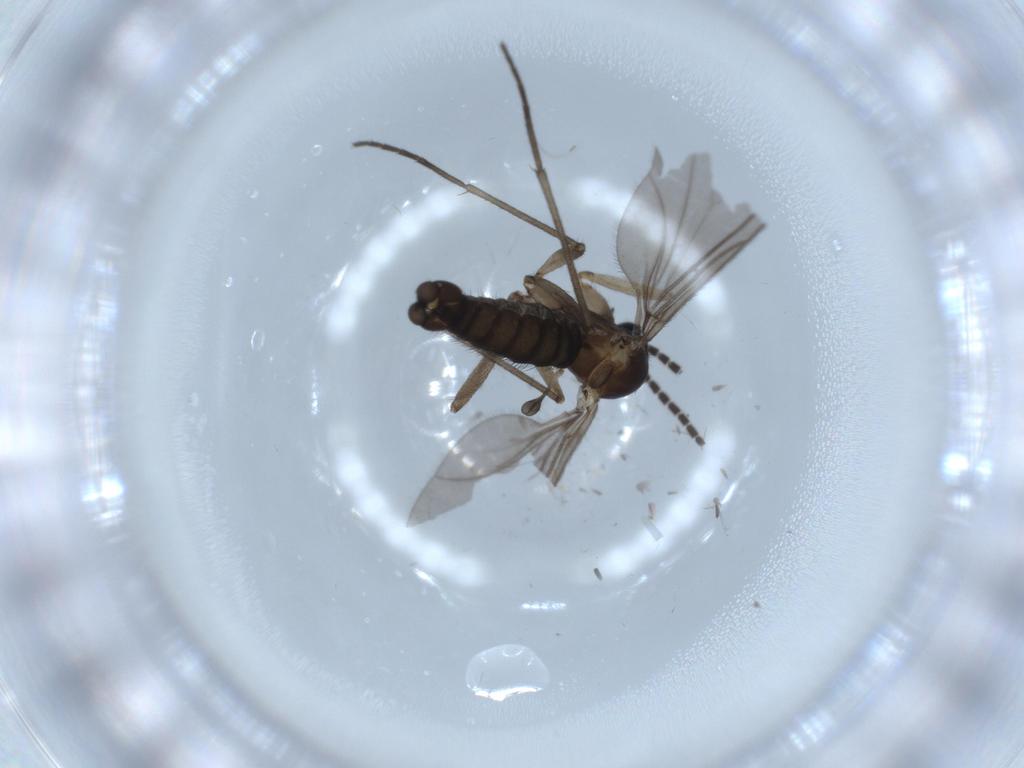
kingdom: Animalia
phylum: Arthropoda
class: Insecta
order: Diptera
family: Sciaridae
